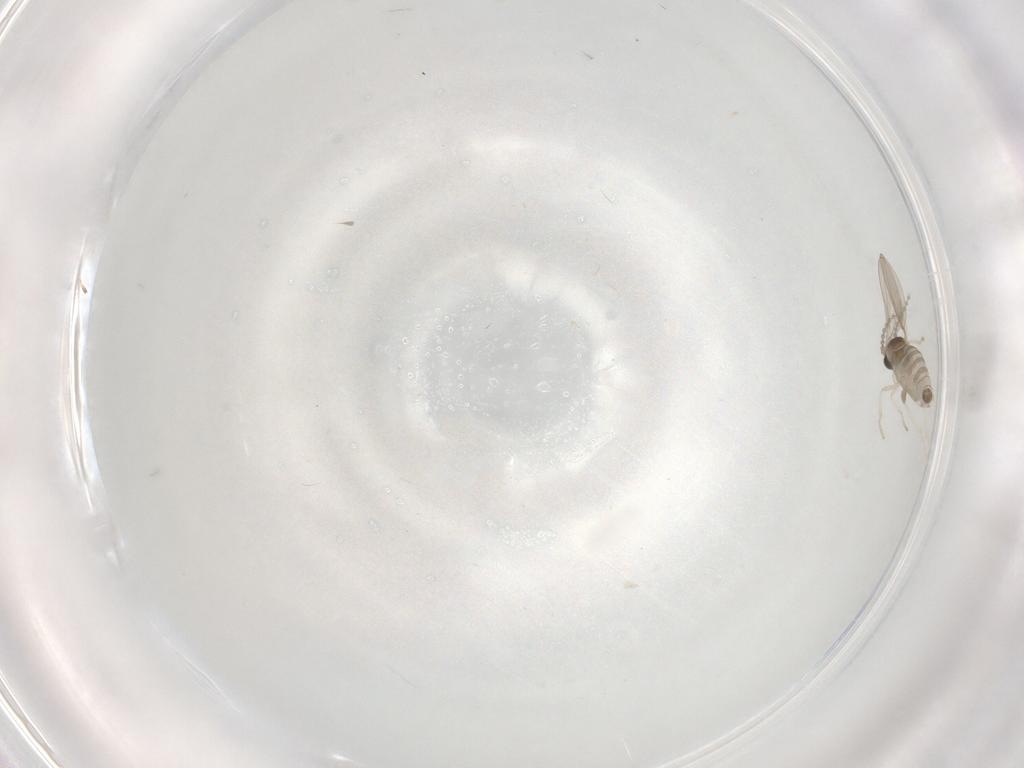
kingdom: Animalia
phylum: Arthropoda
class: Insecta
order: Diptera
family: Cecidomyiidae
